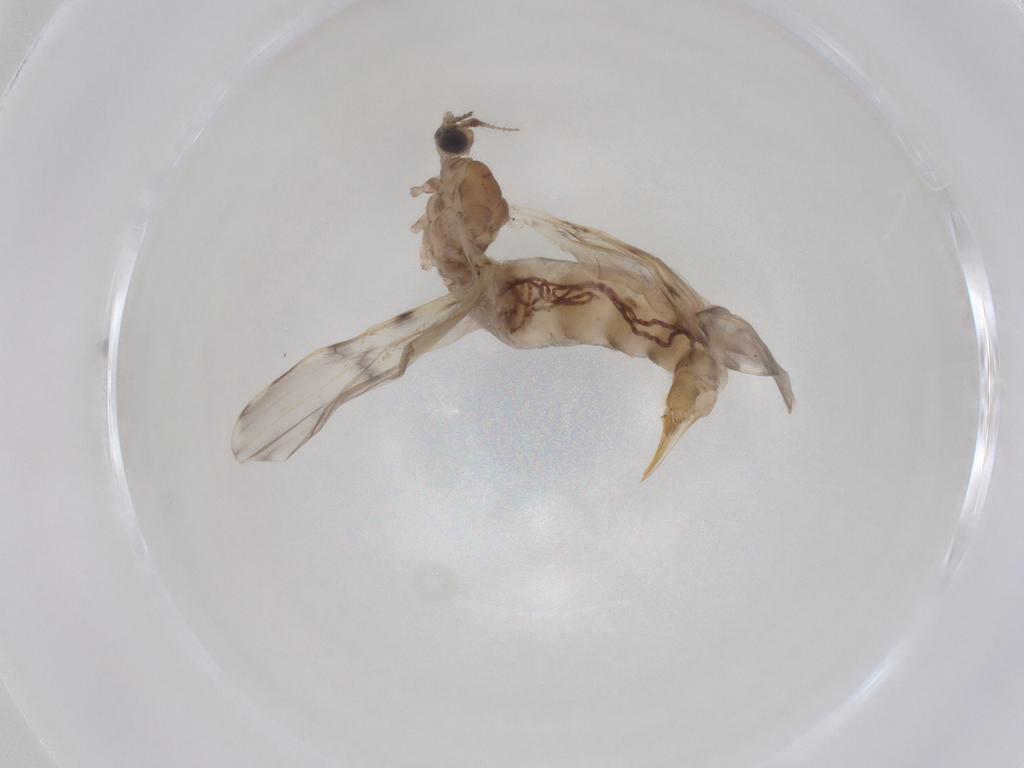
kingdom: Animalia
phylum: Arthropoda
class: Insecta
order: Diptera
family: Limoniidae
